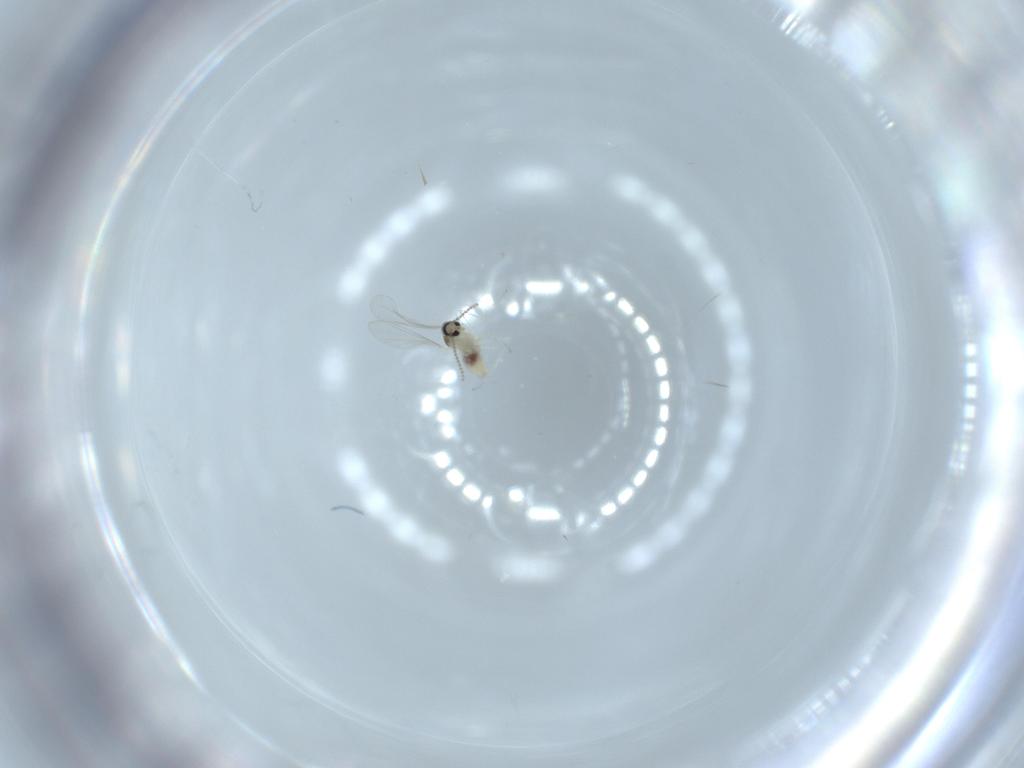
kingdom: Animalia
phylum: Arthropoda
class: Insecta
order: Diptera
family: Cecidomyiidae
